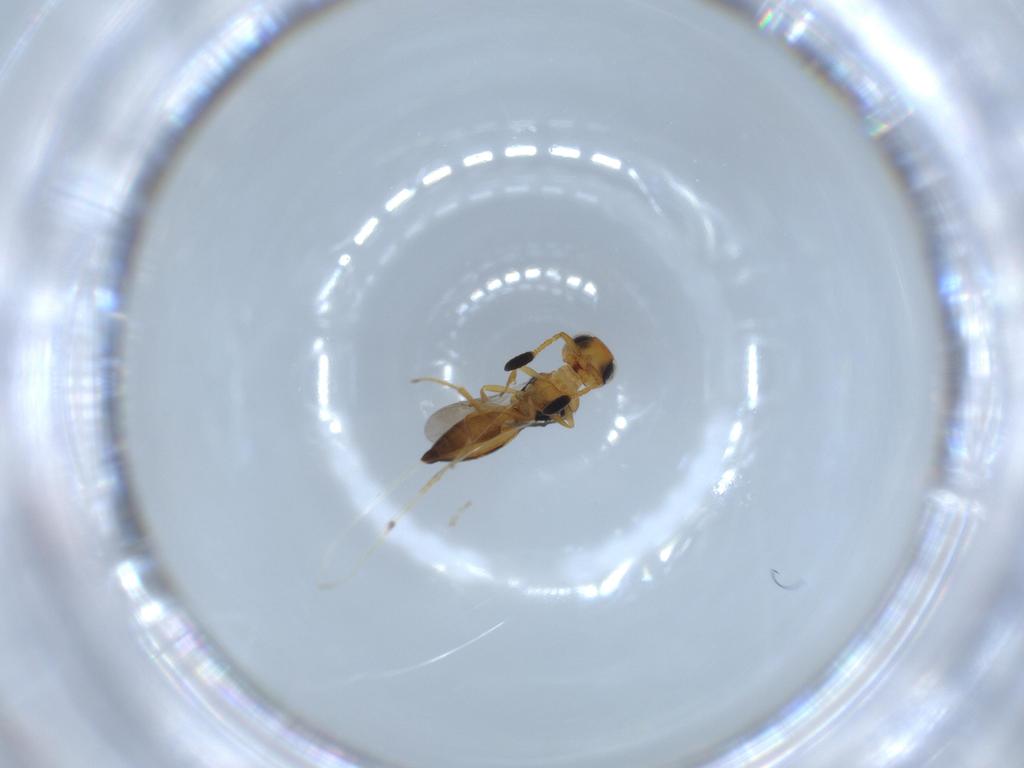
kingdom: Animalia
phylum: Arthropoda
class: Insecta
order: Hymenoptera
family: Scelionidae
